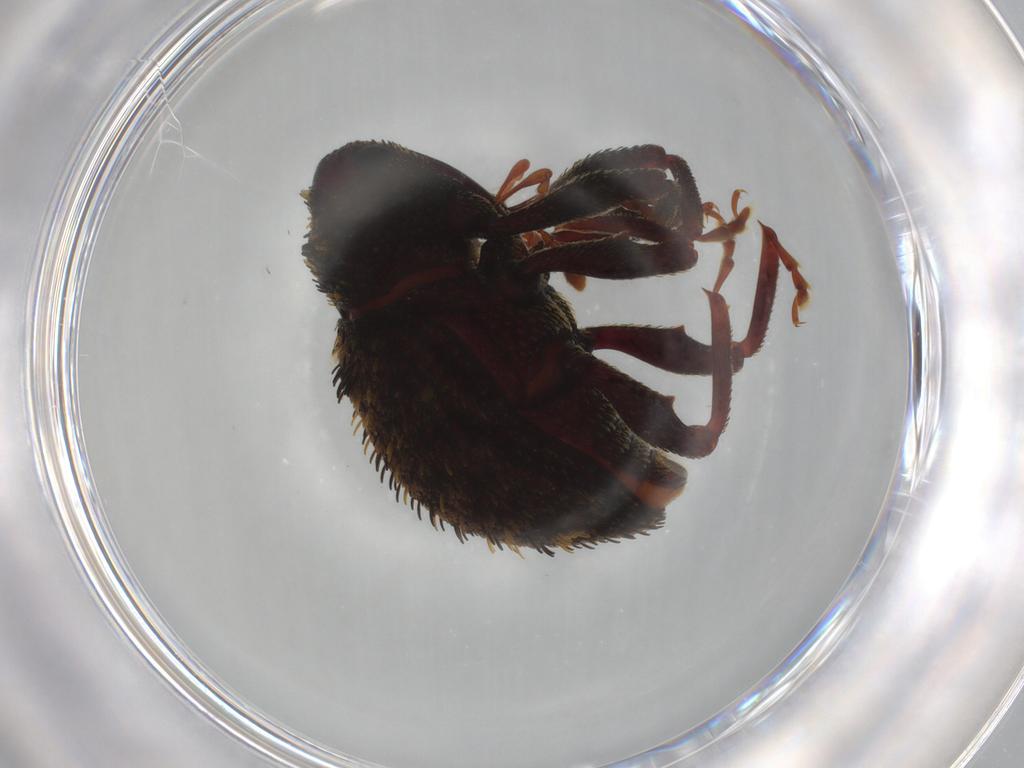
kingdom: Animalia
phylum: Arthropoda
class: Insecta
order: Coleoptera
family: Curculionidae
